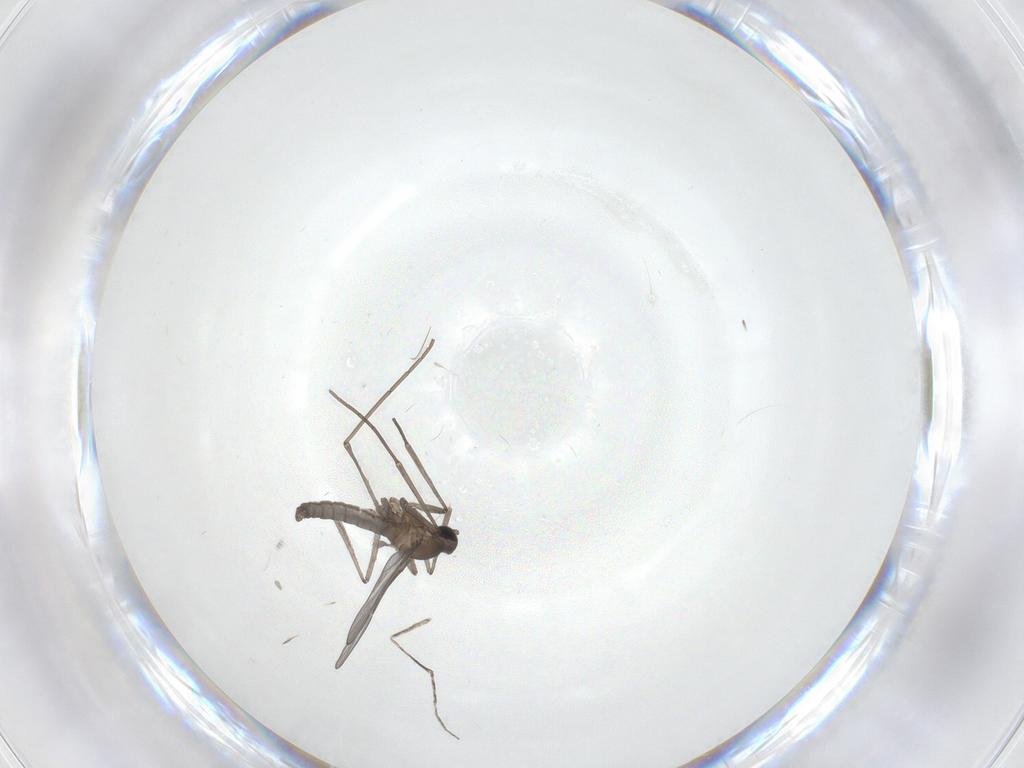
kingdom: Animalia
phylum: Arthropoda
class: Insecta
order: Diptera
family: Cecidomyiidae
